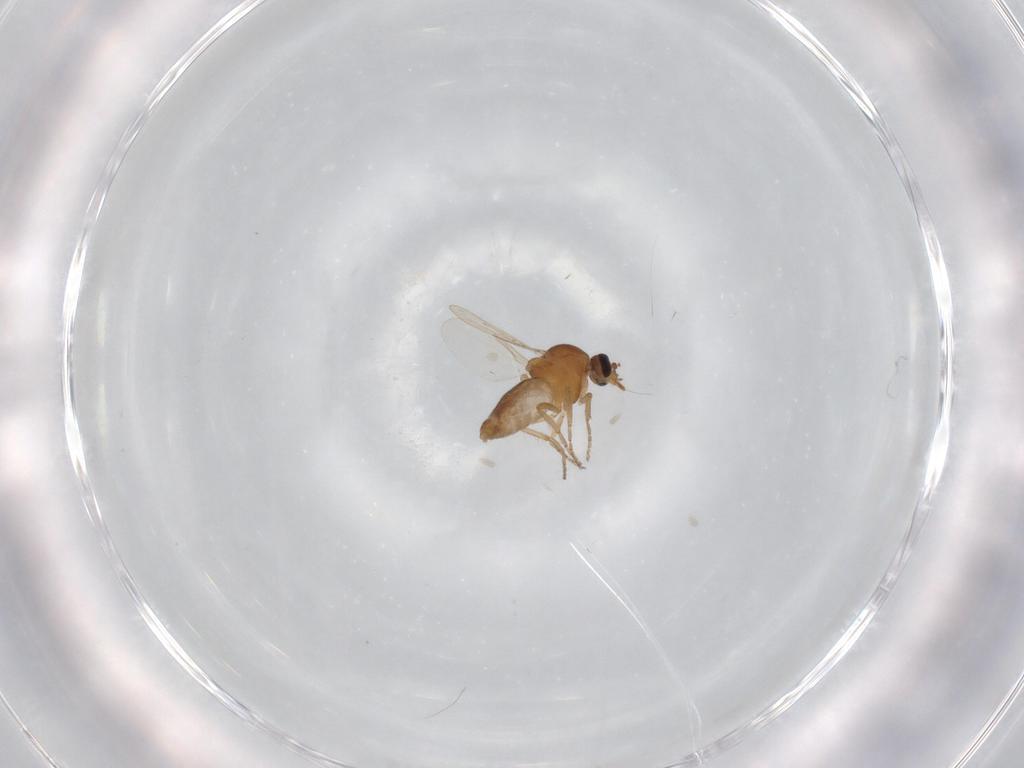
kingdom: Animalia
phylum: Arthropoda
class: Insecta
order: Diptera
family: Ceratopogonidae
